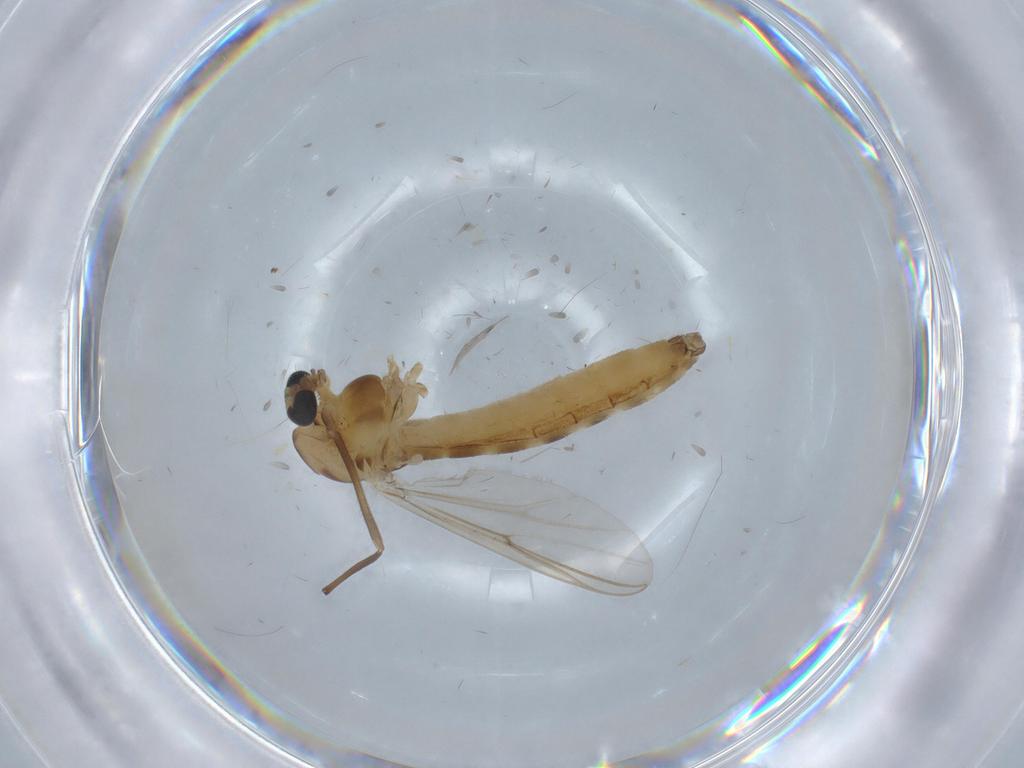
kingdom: Animalia
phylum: Arthropoda
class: Insecta
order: Diptera
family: Chironomidae
